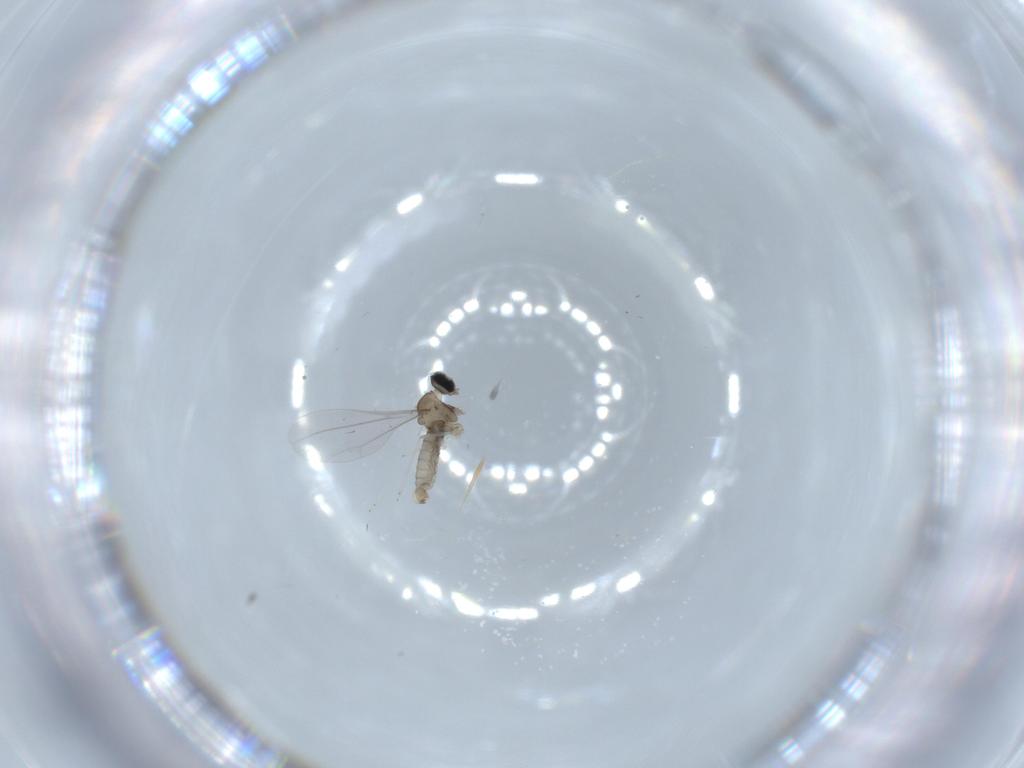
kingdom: Animalia
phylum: Arthropoda
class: Insecta
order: Diptera
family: Cecidomyiidae
